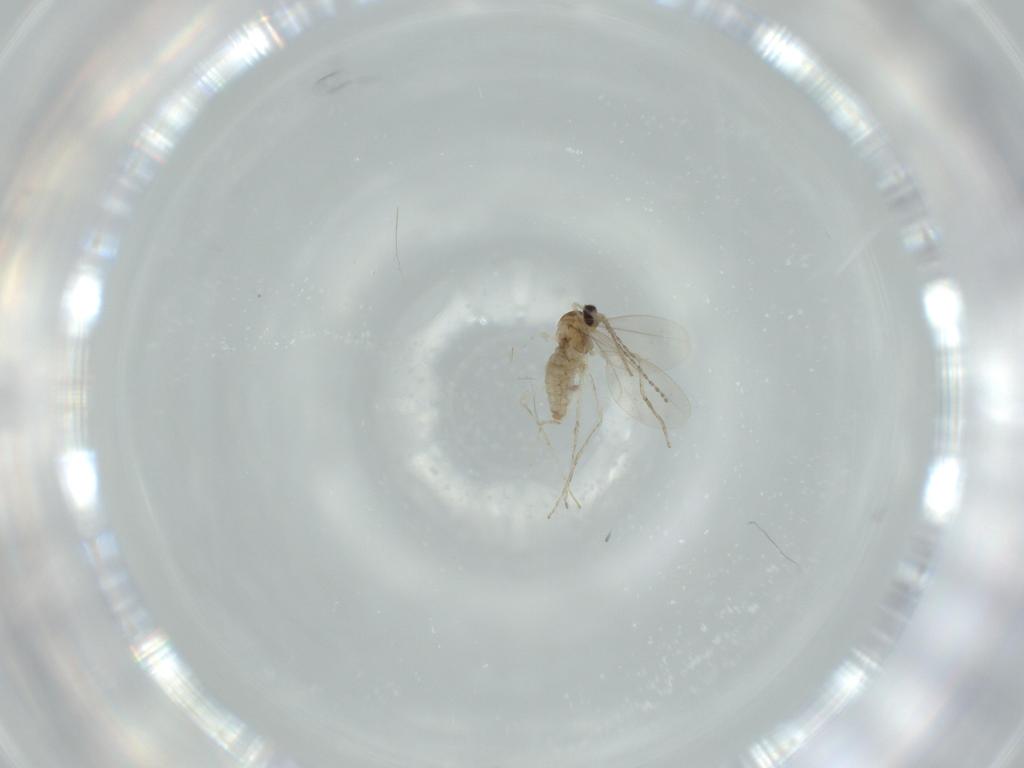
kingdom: Animalia
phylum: Arthropoda
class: Insecta
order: Diptera
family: Cecidomyiidae
